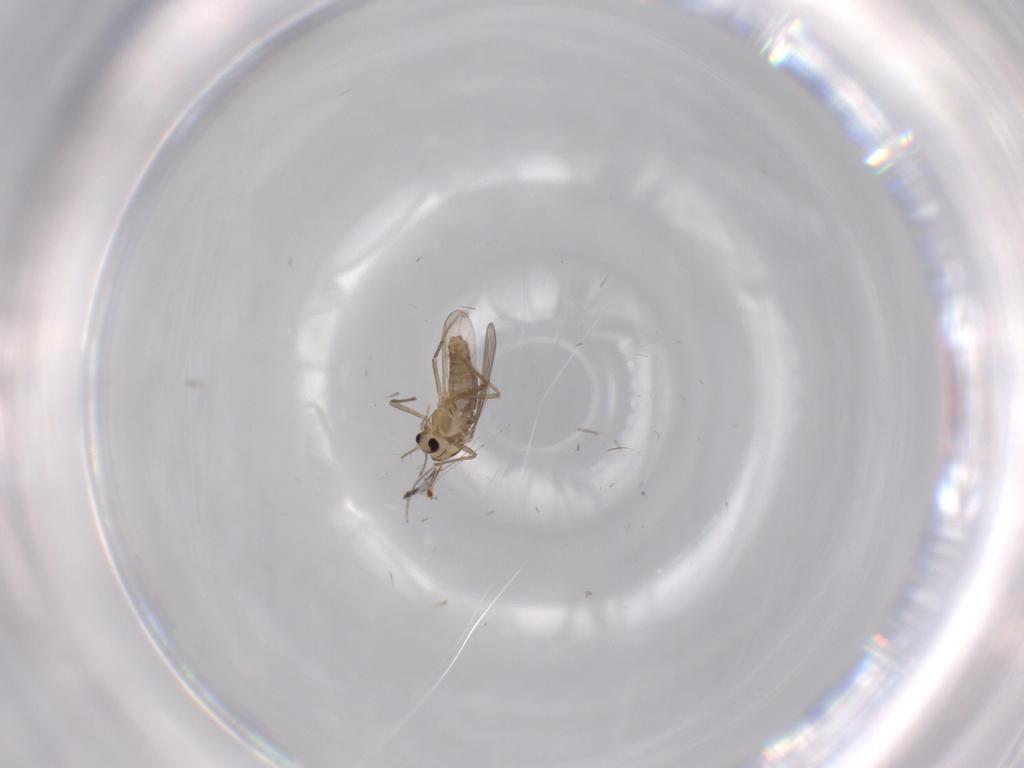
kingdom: Animalia
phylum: Arthropoda
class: Insecta
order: Diptera
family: Chironomidae
